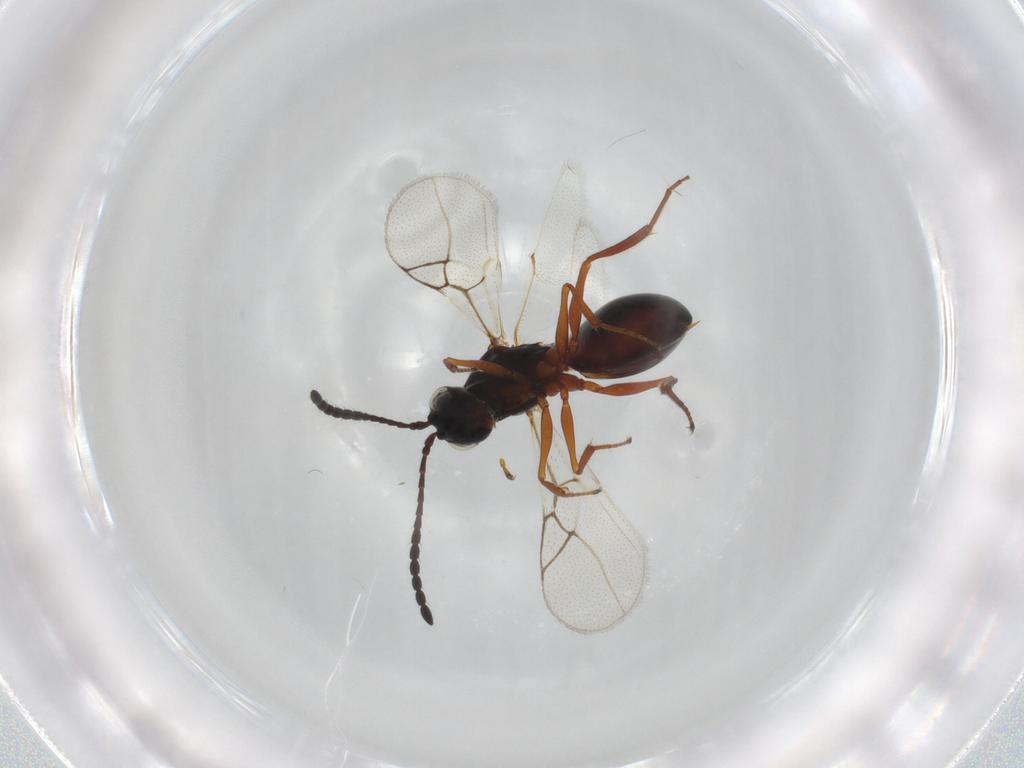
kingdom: Animalia
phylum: Arthropoda
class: Insecta
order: Hymenoptera
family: Figitidae
